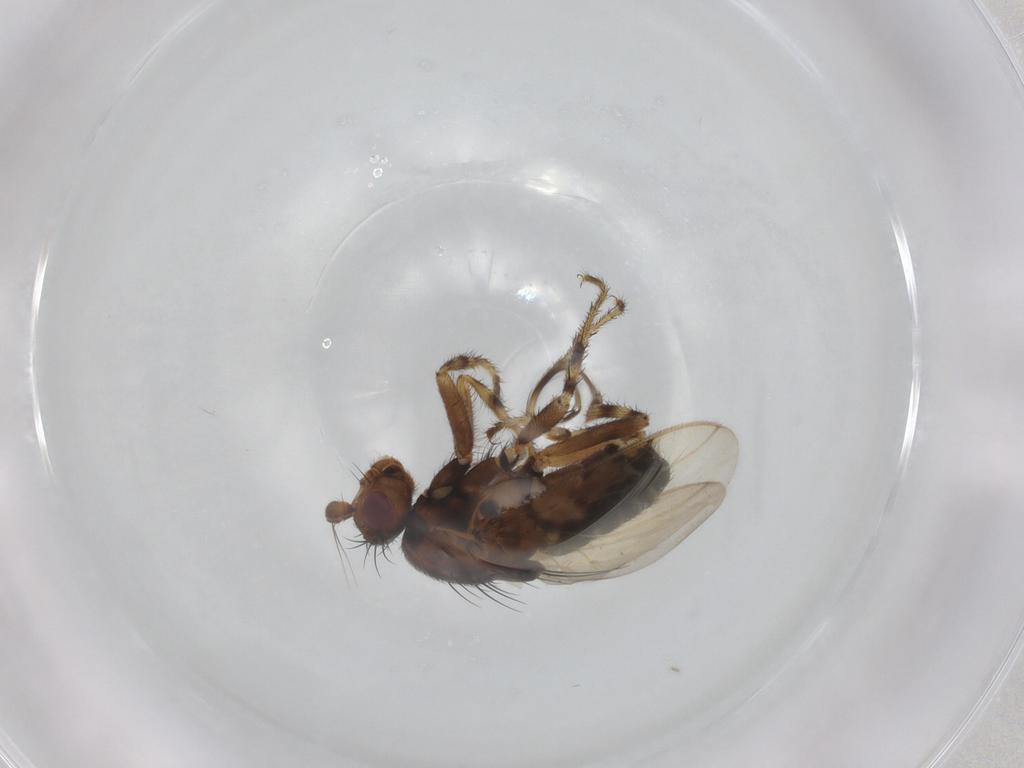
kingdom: Animalia
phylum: Arthropoda
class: Insecta
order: Diptera
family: Sphaeroceridae
